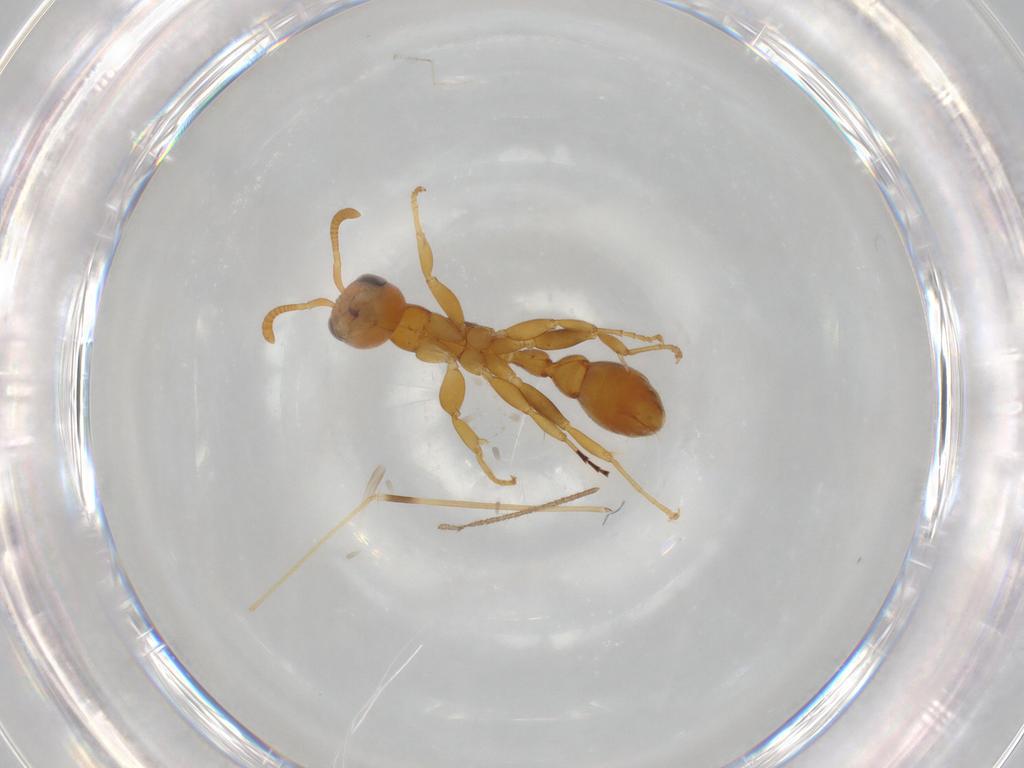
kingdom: Animalia
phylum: Arthropoda
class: Insecta
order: Hymenoptera
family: Formicidae
